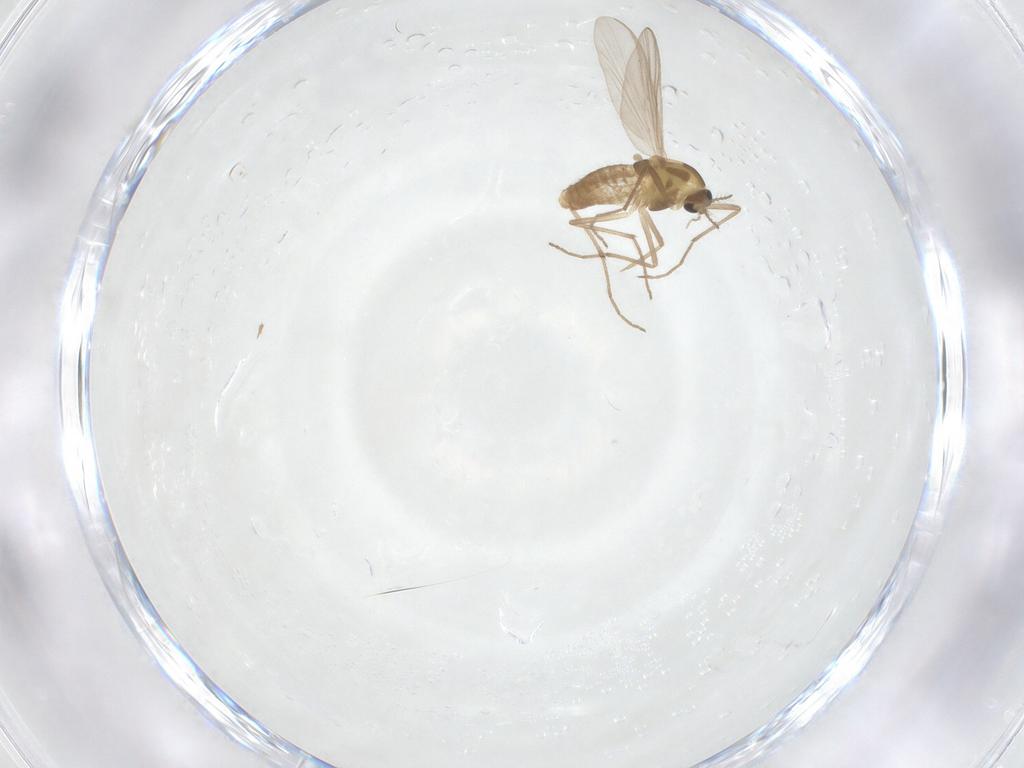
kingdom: Animalia
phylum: Arthropoda
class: Insecta
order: Diptera
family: Chironomidae
